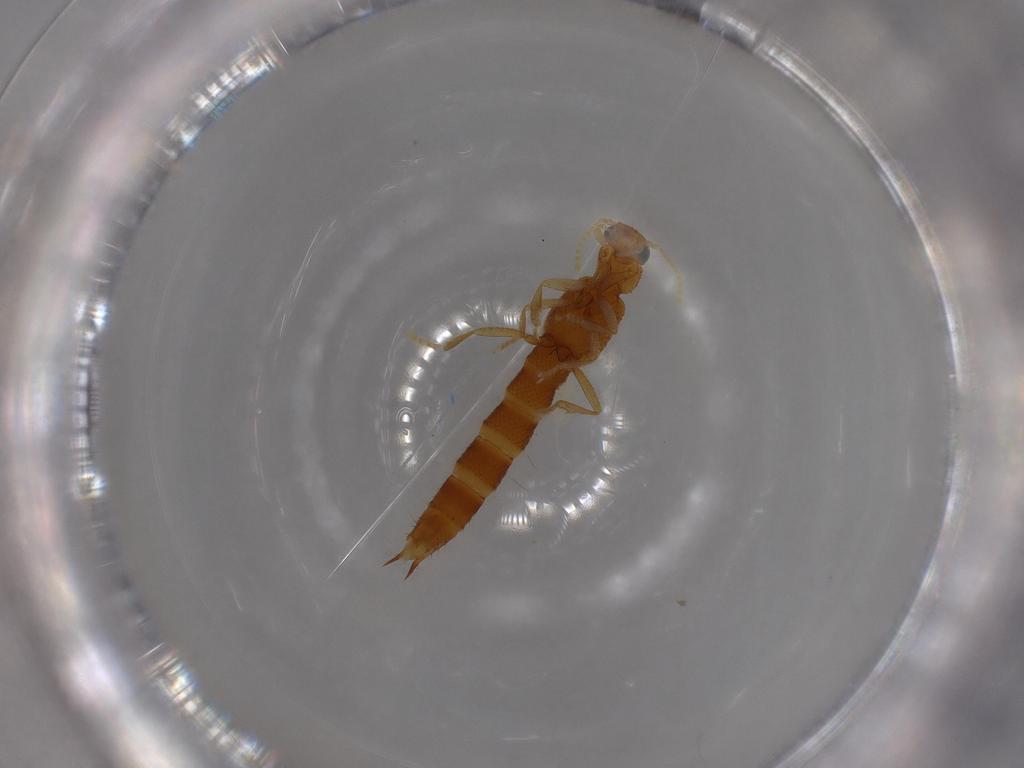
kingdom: Animalia
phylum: Arthropoda
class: Insecta
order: Coleoptera
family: Staphylinidae
